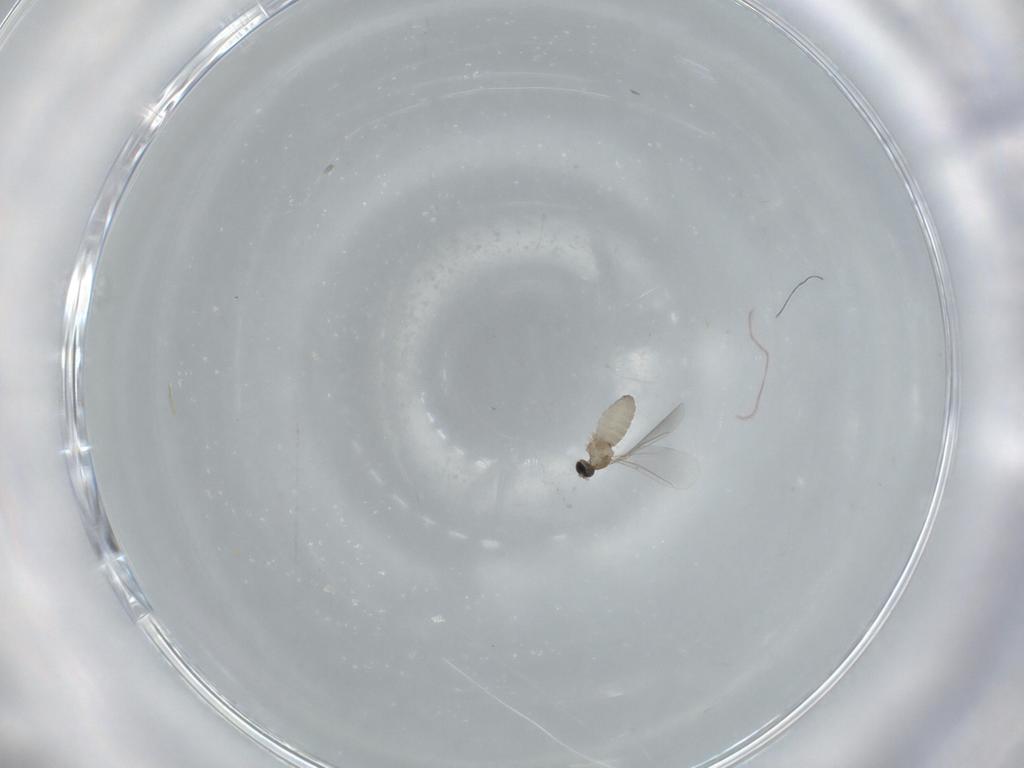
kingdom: Animalia
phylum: Arthropoda
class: Insecta
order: Diptera
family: Cecidomyiidae
